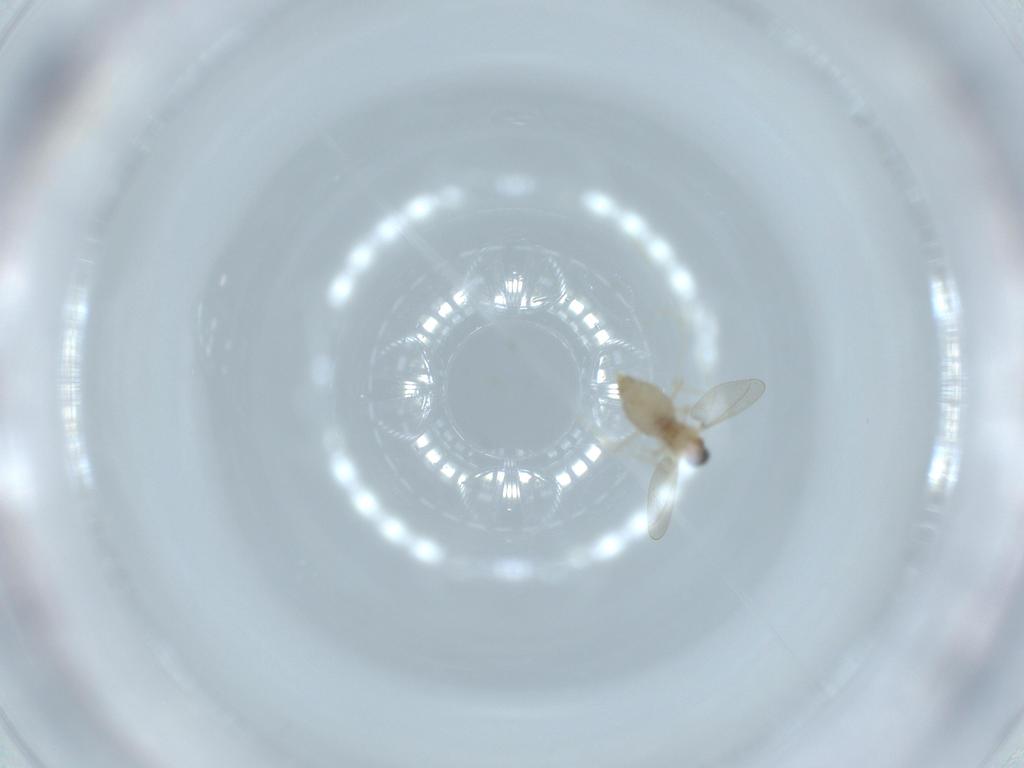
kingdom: Animalia
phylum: Arthropoda
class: Insecta
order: Diptera
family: Cecidomyiidae
